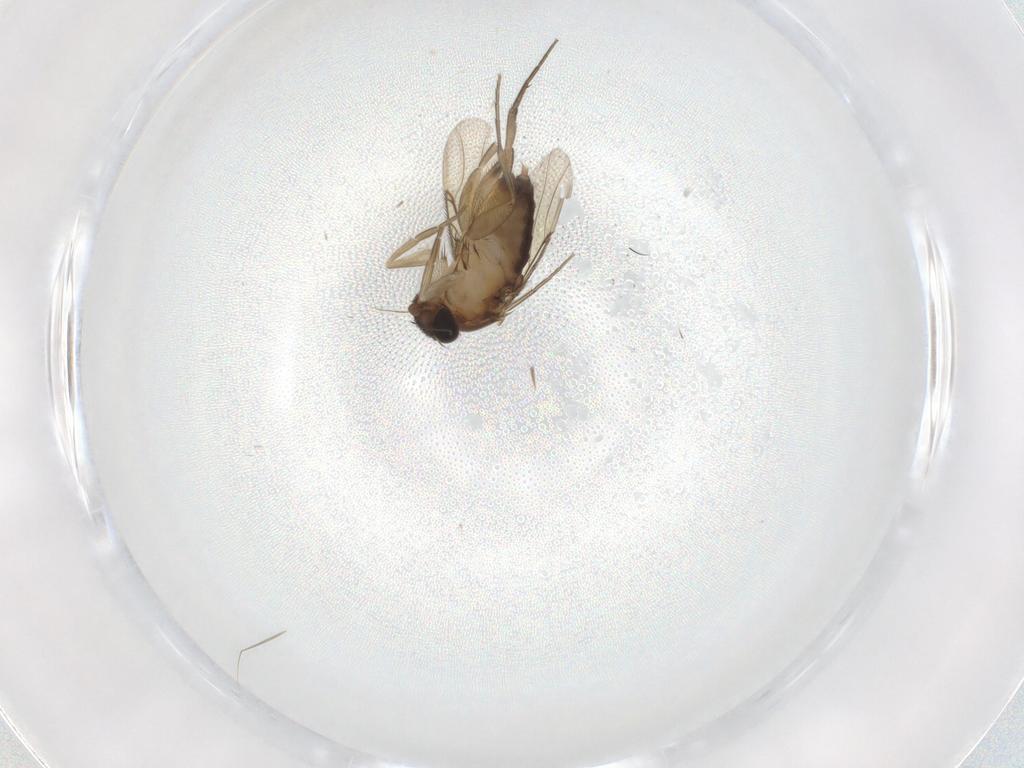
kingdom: Animalia
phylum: Arthropoda
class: Insecta
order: Diptera
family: Phoridae
